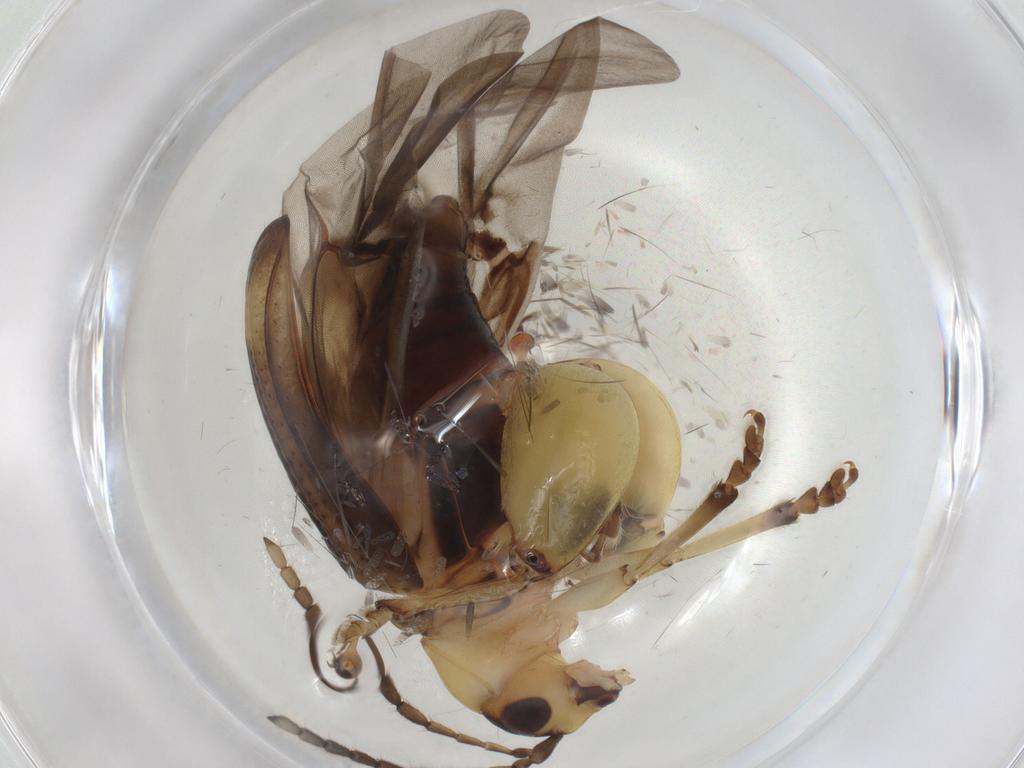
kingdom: Animalia
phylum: Arthropoda
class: Insecta
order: Coleoptera
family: Chrysomelidae
